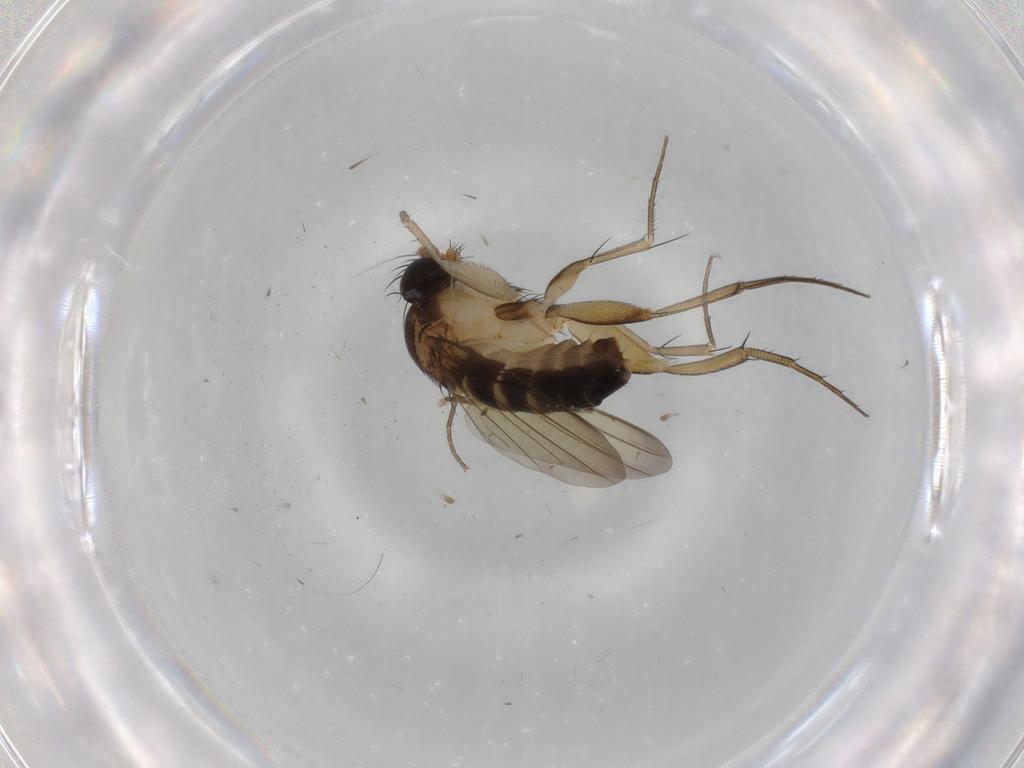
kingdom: Animalia
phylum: Arthropoda
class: Insecta
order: Diptera
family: Ceratopogonidae
